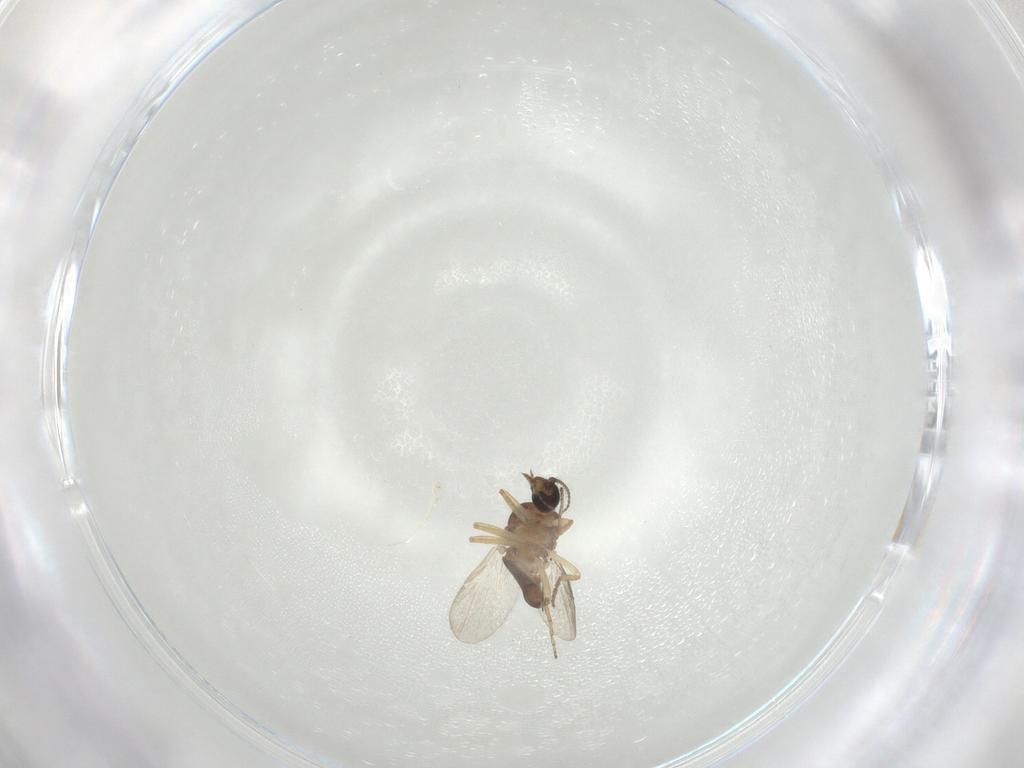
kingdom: Animalia
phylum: Arthropoda
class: Insecta
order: Diptera
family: Ceratopogonidae
